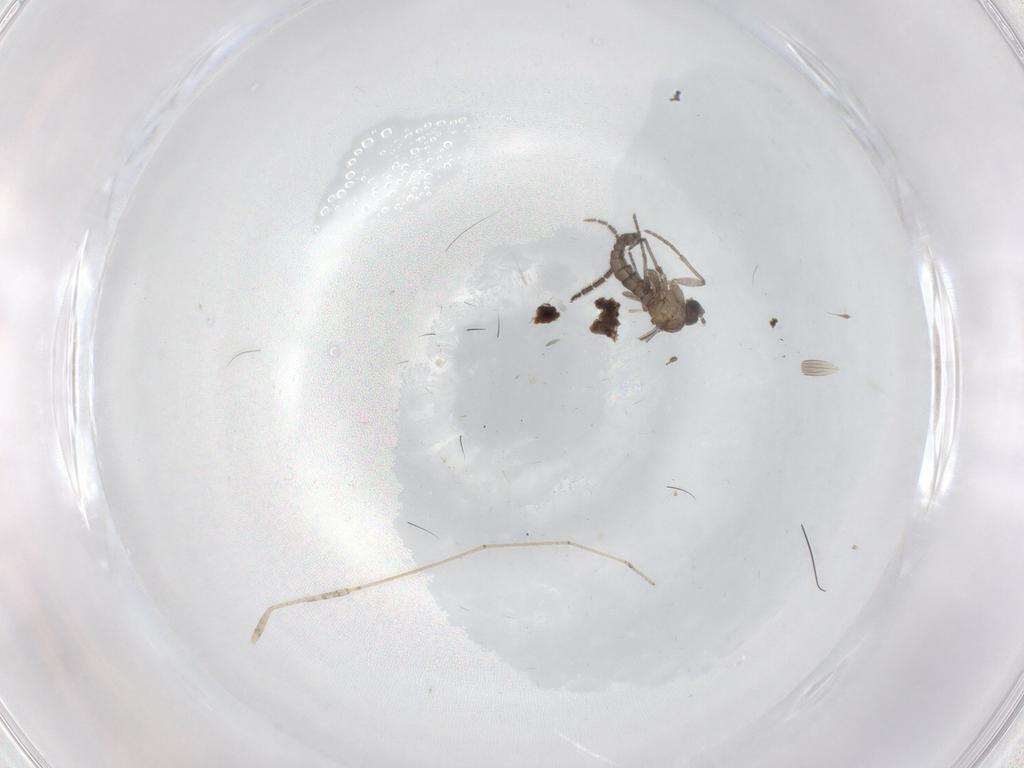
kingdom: Animalia
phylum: Arthropoda
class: Insecta
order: Diptera
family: Sciaridae
